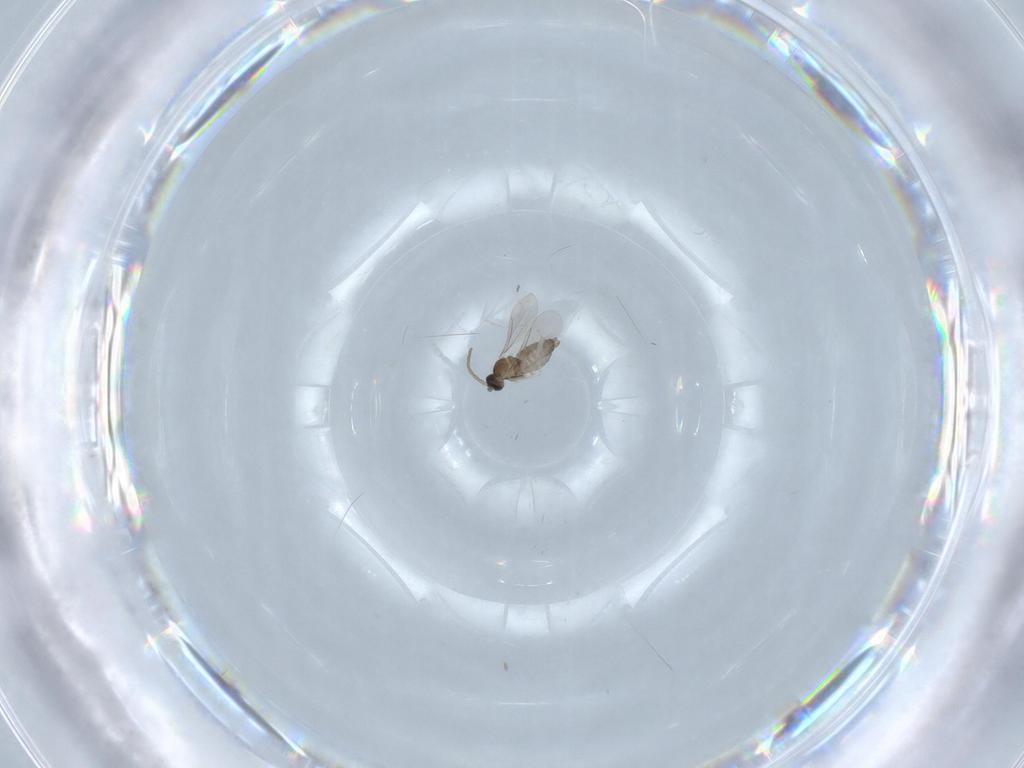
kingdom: Animalia
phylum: Arthropoda
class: Insecta
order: Diptera
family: Cecidomyiidae
